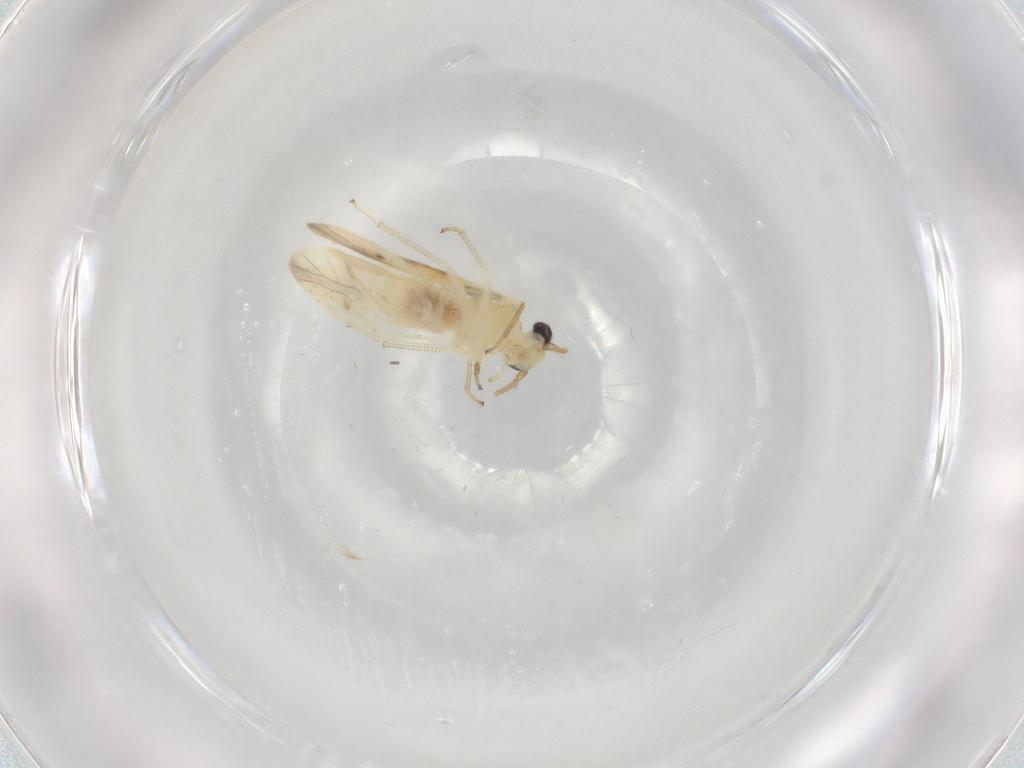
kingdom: Animalia
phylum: Arthropoda
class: Insecta
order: Psocodea
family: Caeciliusidae
